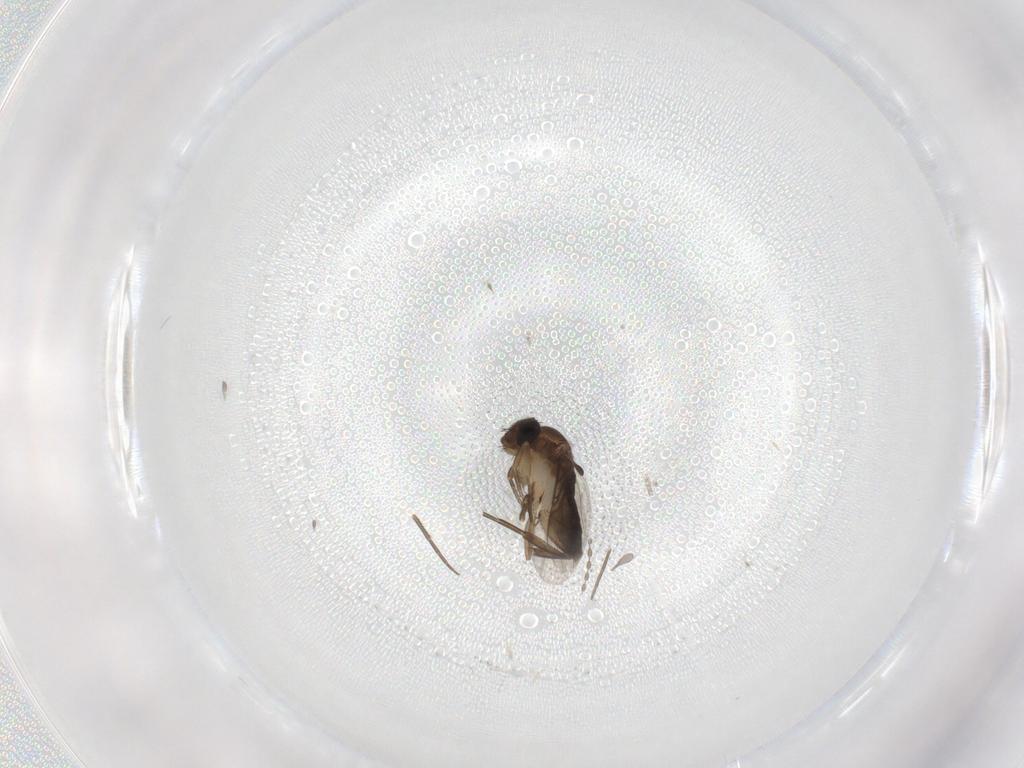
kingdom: Animalia
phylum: Arthropoda
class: Insecta
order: Diptera
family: Phoridae
